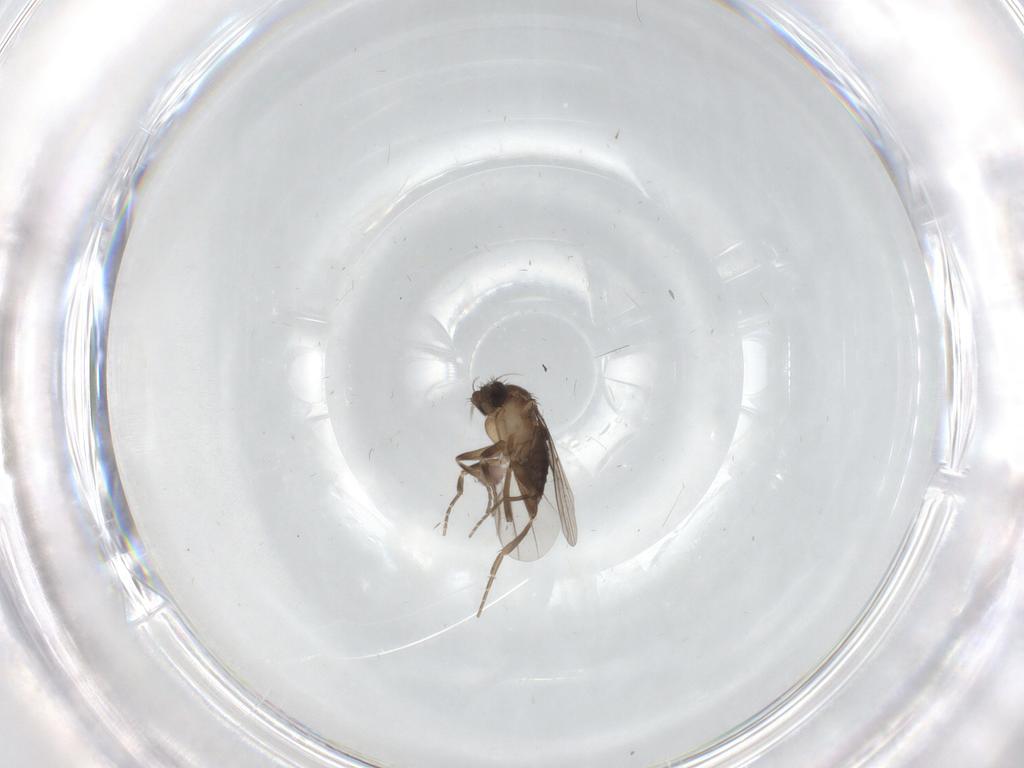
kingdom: Animalia
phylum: Arthropoda
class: Insecta
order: Diptera
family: Phoridae
